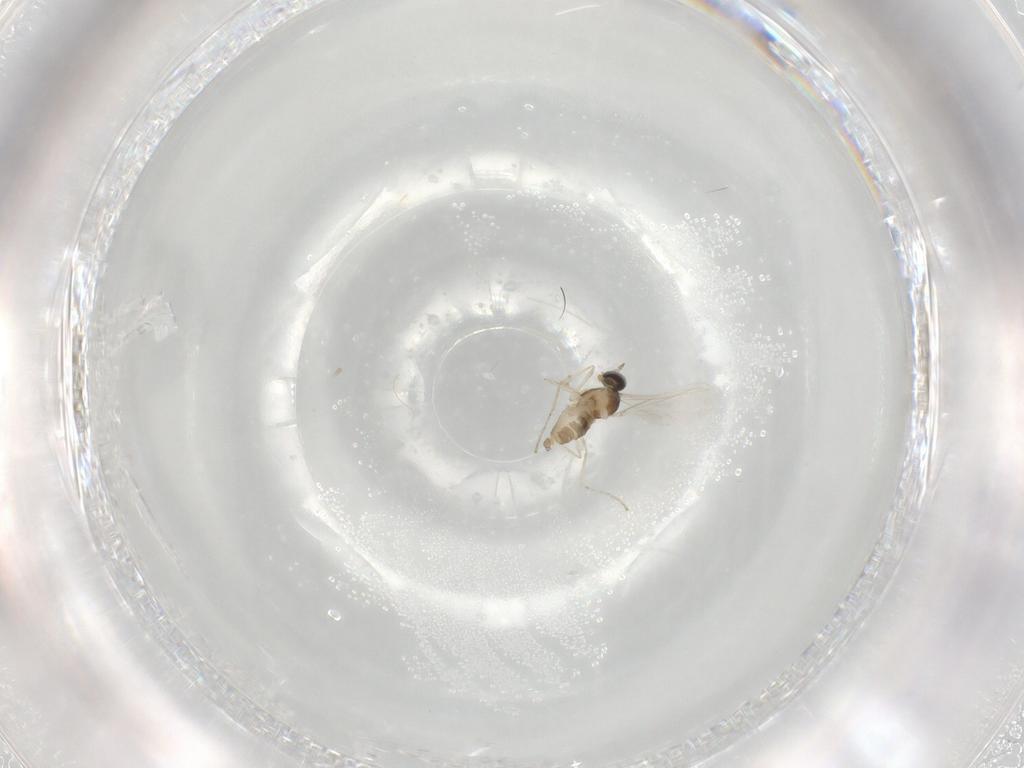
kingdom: Animalia
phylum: Arthropoda
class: Insecta
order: Diptera
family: Cecidomyiidae
